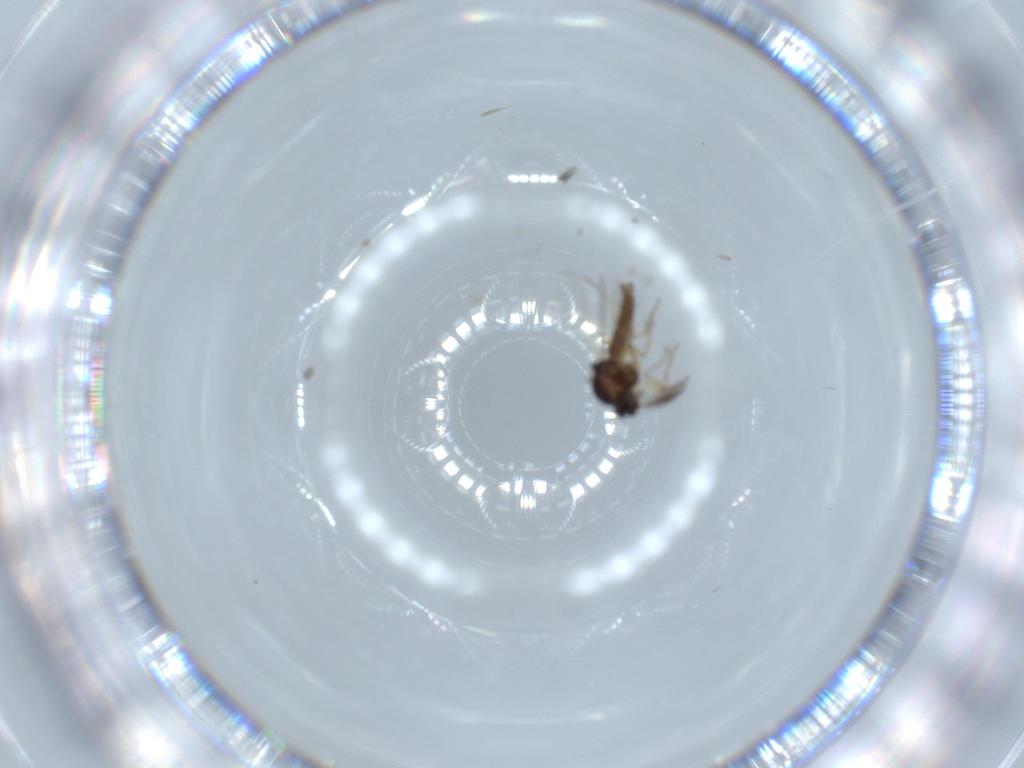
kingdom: Animalia
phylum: Arthropoda
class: Insecta
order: Diptera
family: Ceratopogonidae
